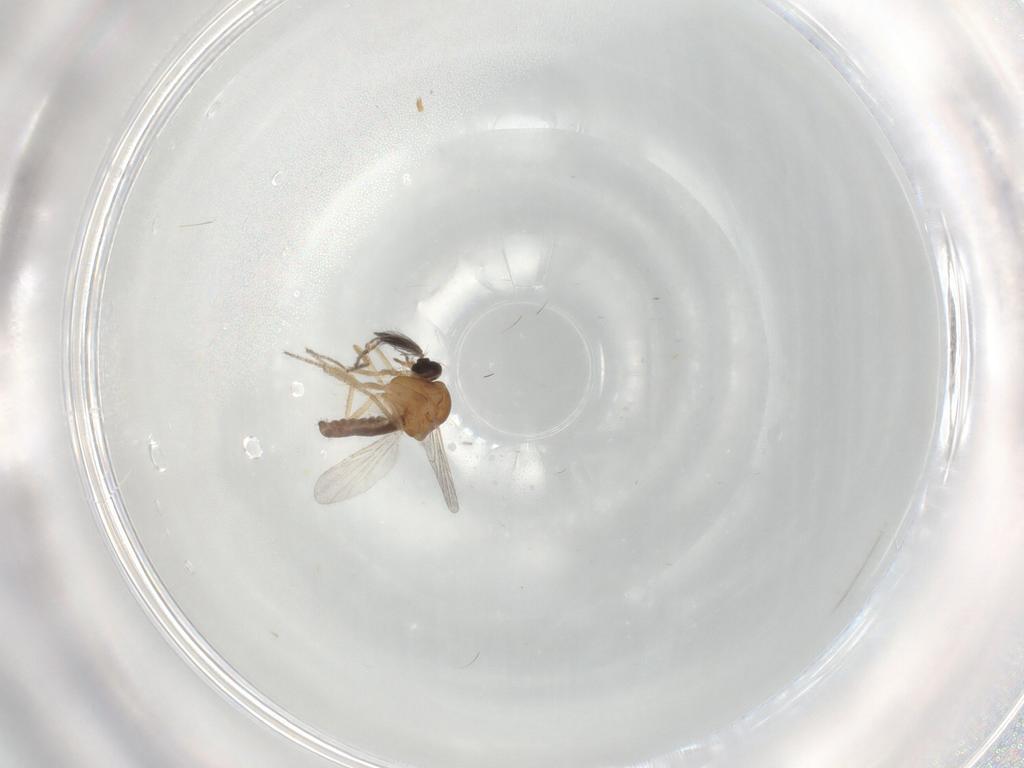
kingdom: Animalia
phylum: Arthropoda
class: Insecta
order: Diptera
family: Ceratopogonidae
